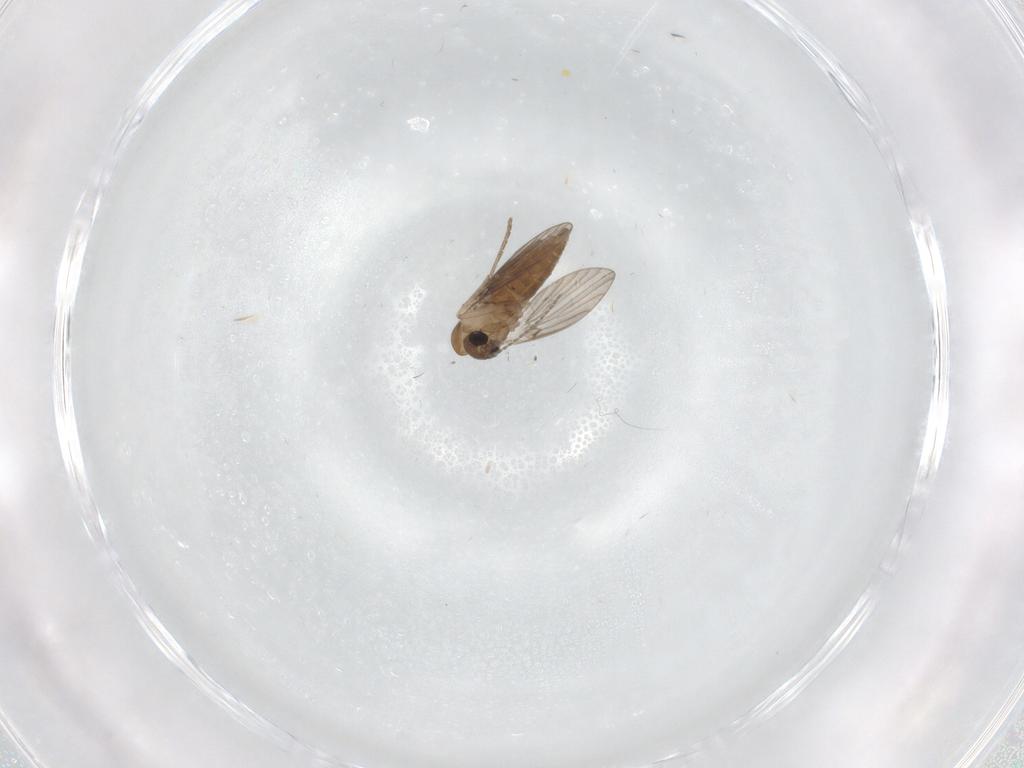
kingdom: Animalia
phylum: Arthropoda
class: Insecta
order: Diptera
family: Psychodidae
